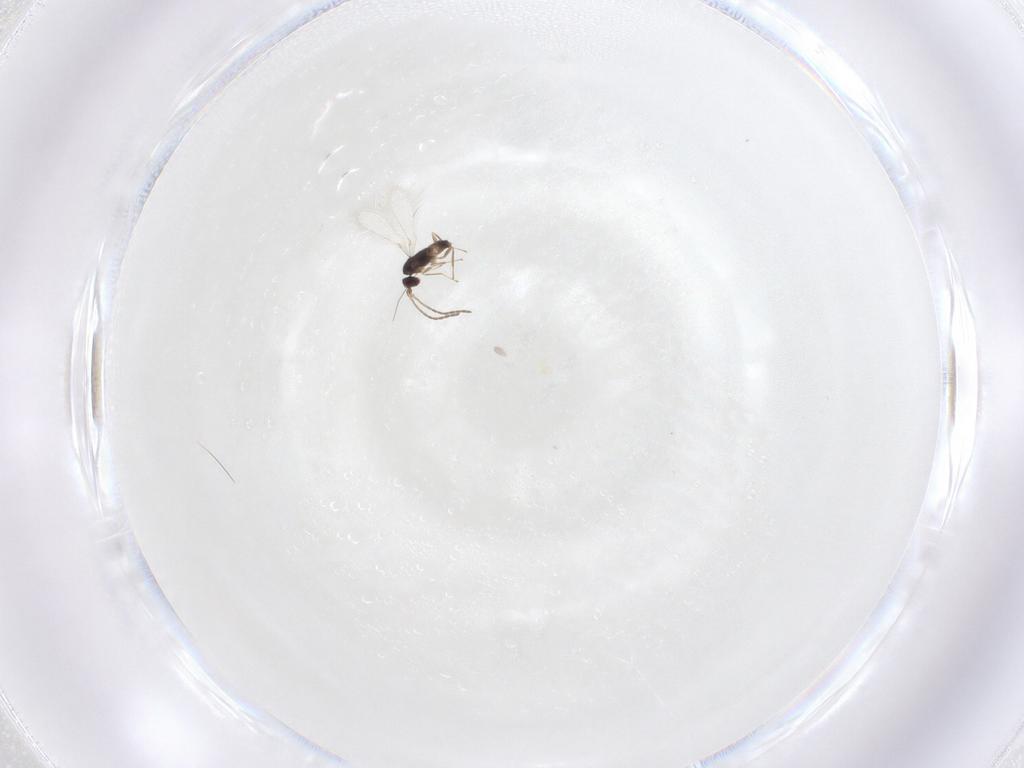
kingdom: Animalia
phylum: Arthropoda
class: Insecta
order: Hymenoptera
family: Mymaridae
